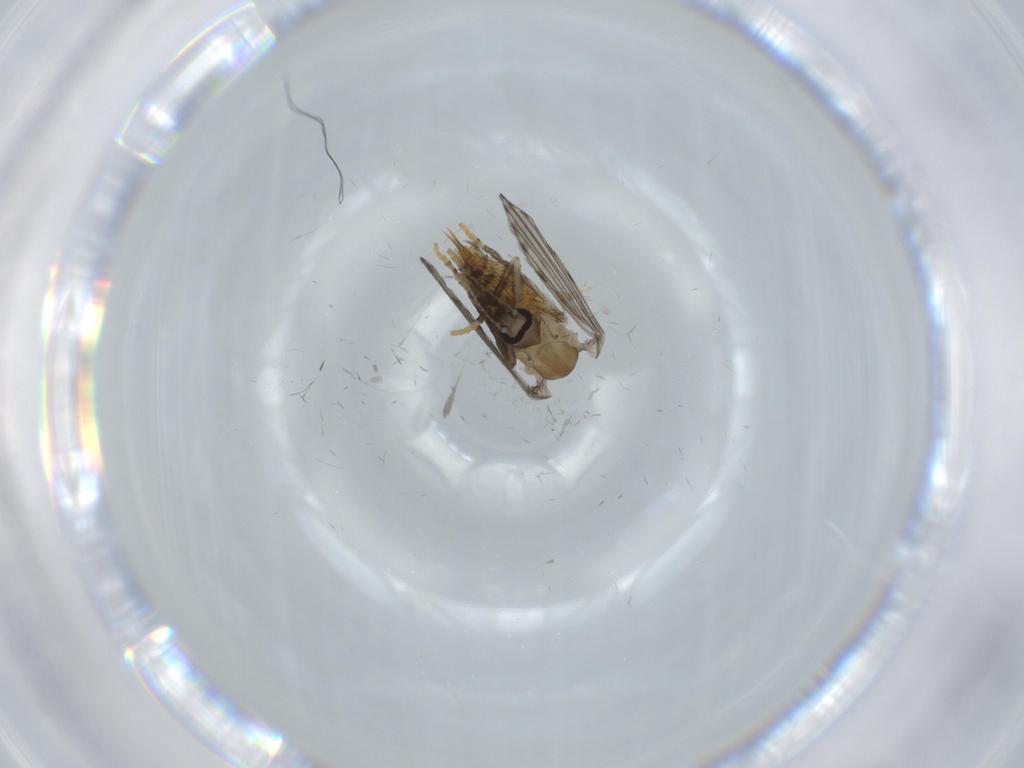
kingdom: Animalia
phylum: Arthropoda
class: Insecta
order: Diptera
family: Psychodidae
